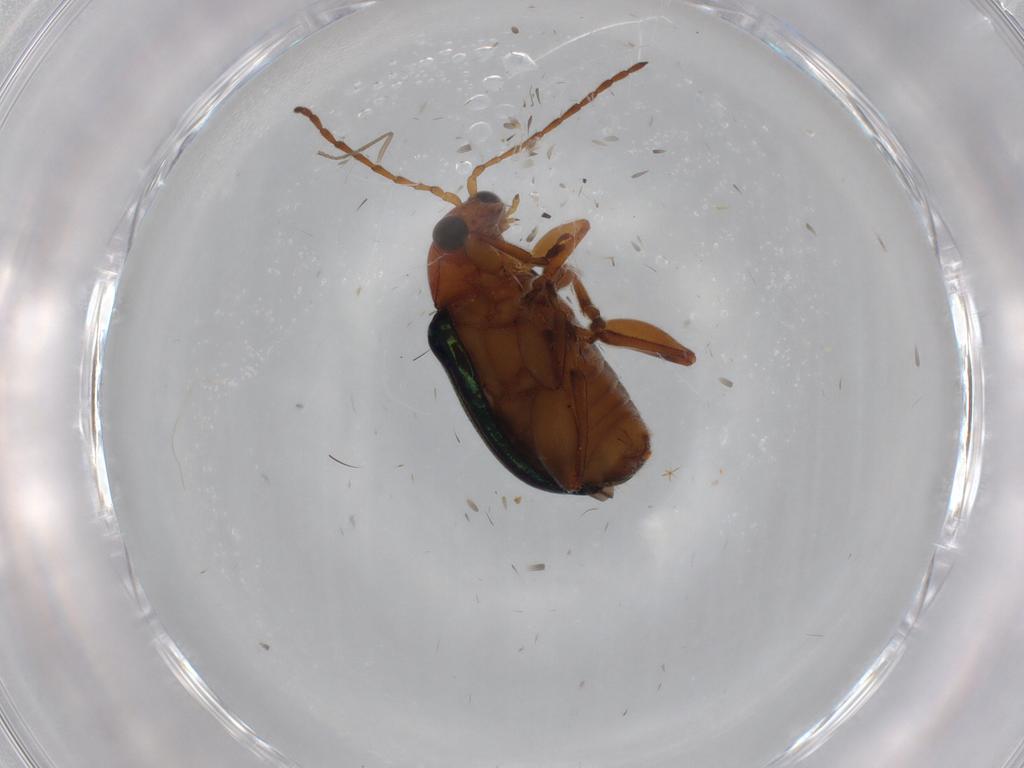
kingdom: Animalia
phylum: Arthropoda
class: Insecta
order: Coleoptera
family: Chrysomelidae
